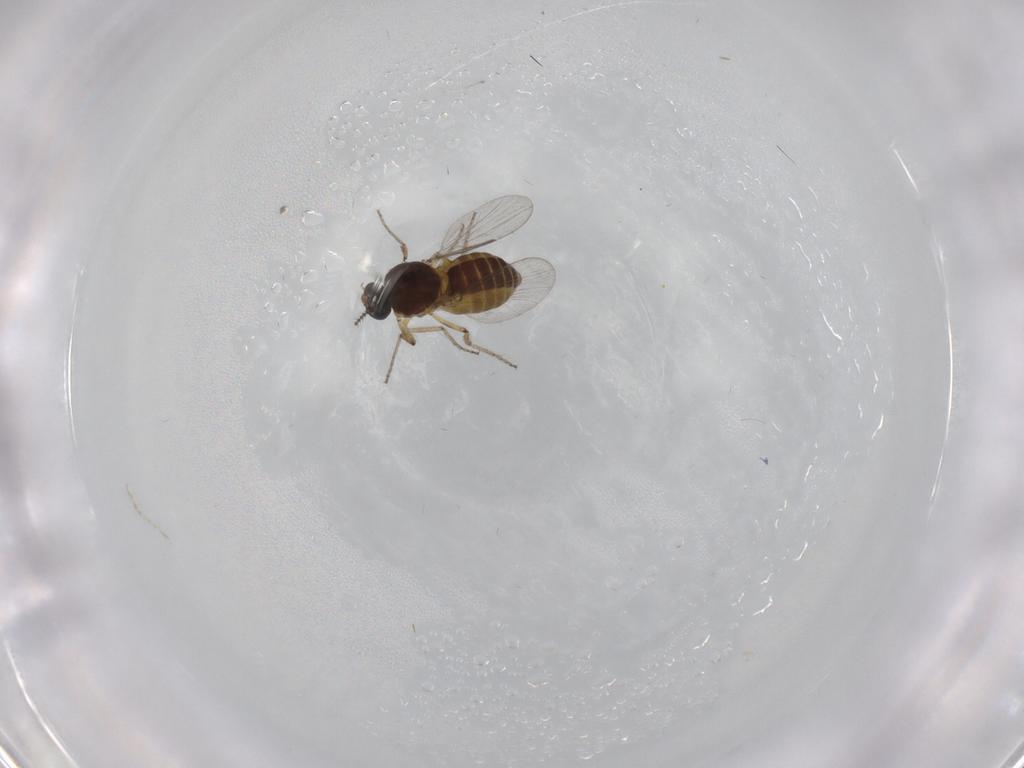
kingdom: Animalia
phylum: Arthropoda
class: Insecta
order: Diptera
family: Ceratopogonidae
